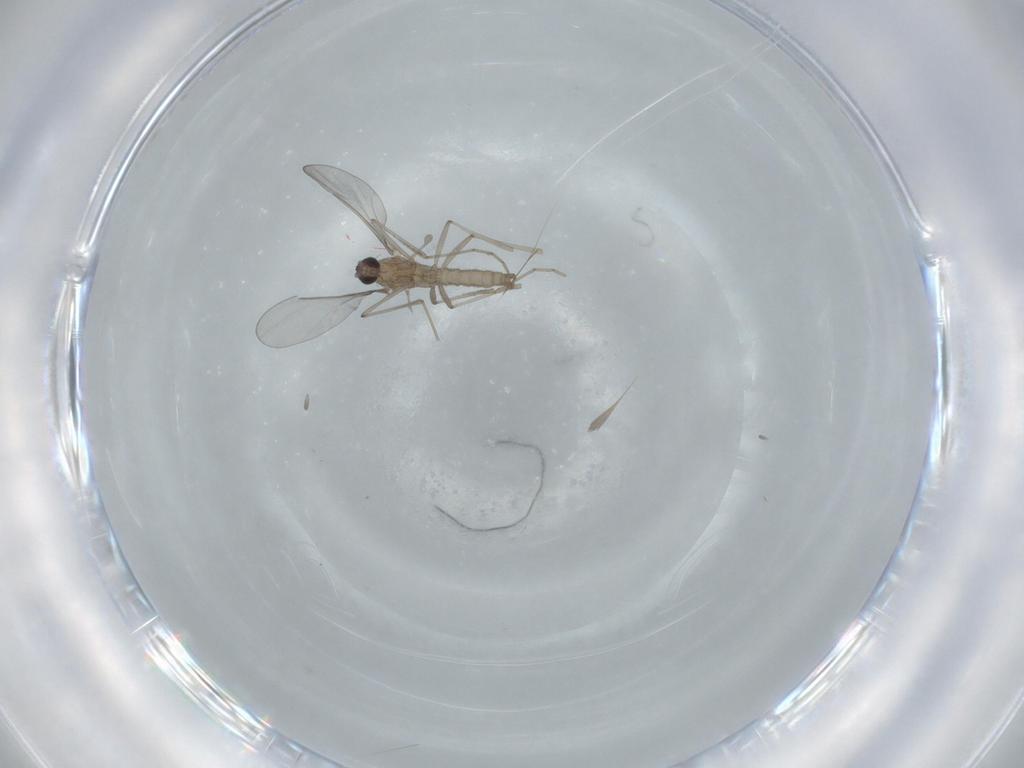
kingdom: Animalia
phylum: Arthropoda
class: Insecta
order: Diptera
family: Cecidomyiidae
